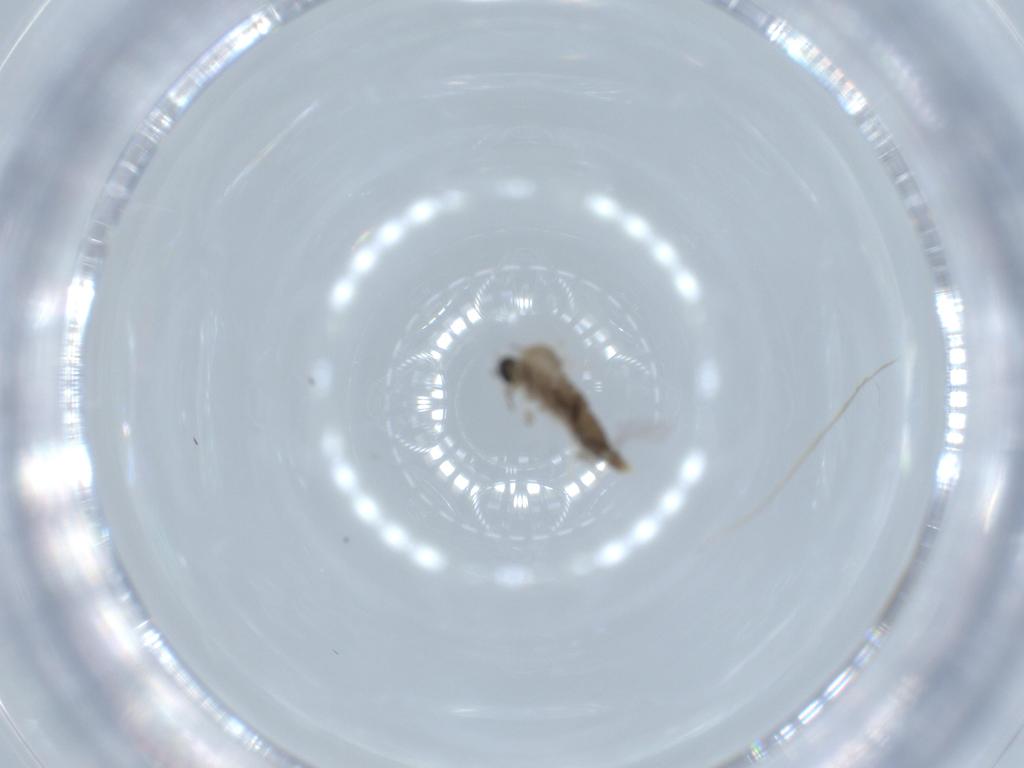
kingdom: Animalia
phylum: Arthropoda
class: Insecta
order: Diptera
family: Cecidomyiidae
